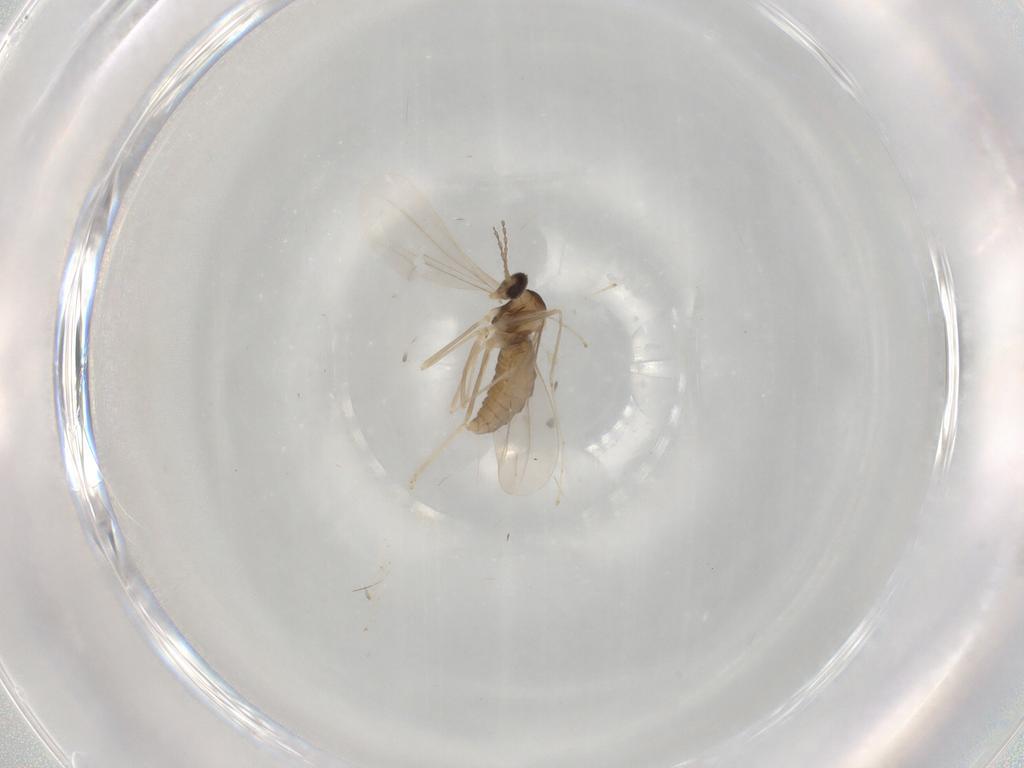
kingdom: Animalia
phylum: Arthropoda
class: Insecta
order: Diptera
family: Cecidomyiidae
